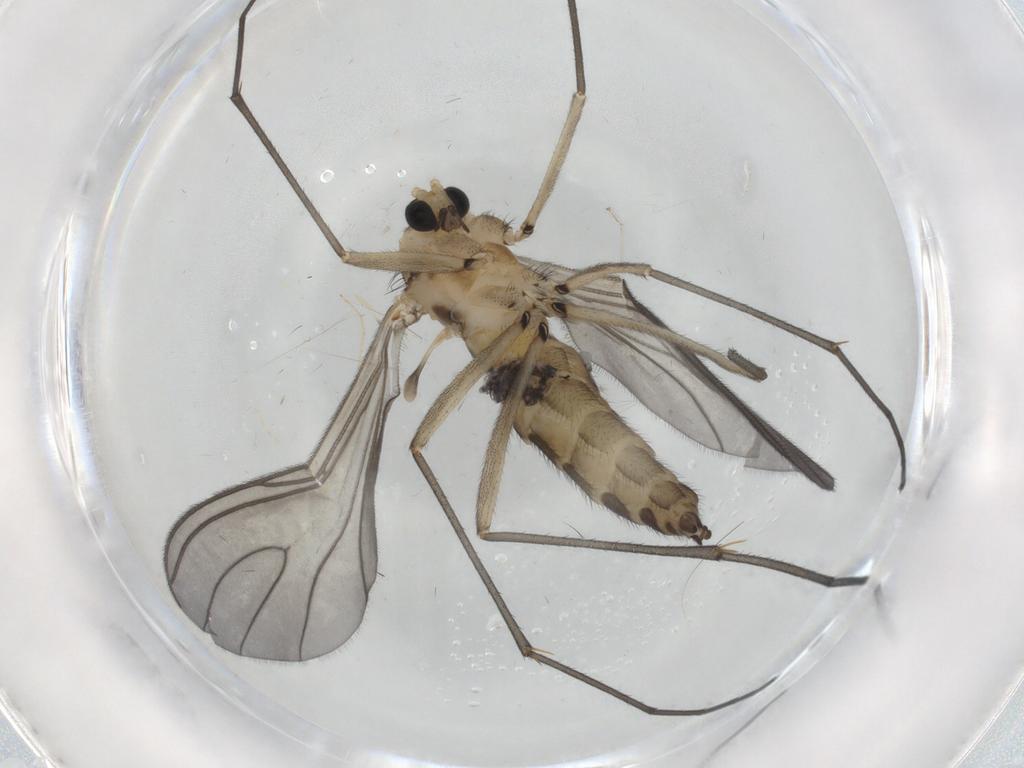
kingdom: Animalia
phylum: Arthropoda
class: Insecta
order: Diptera
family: Sciaridae
